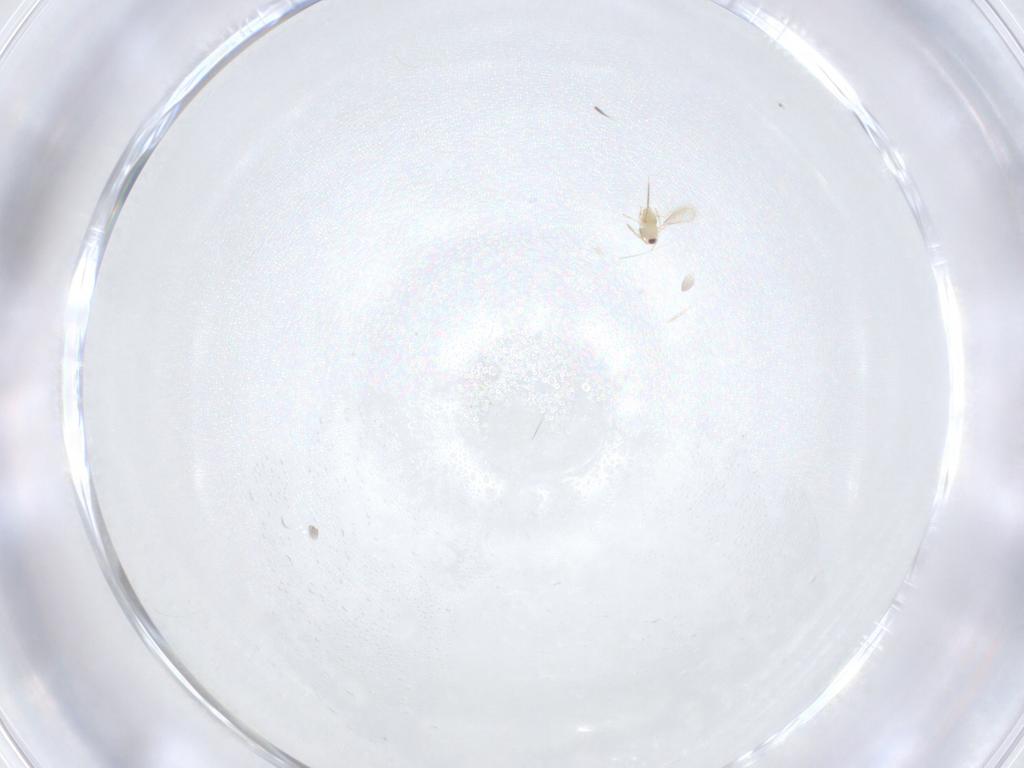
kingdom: Animalia
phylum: Arthropoda
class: Insecta
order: Hymenoptera
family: Aphelinidae
